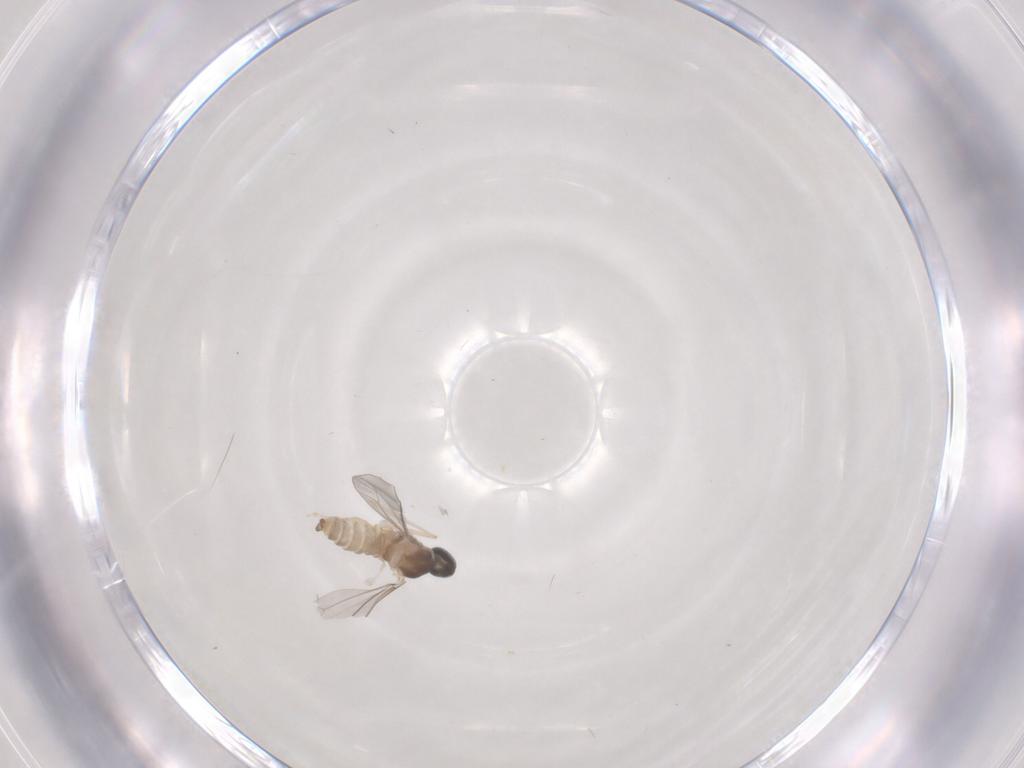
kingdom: Animalia
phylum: Arthropoda
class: Insecta
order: Diptera
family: Cecidomyiidae
